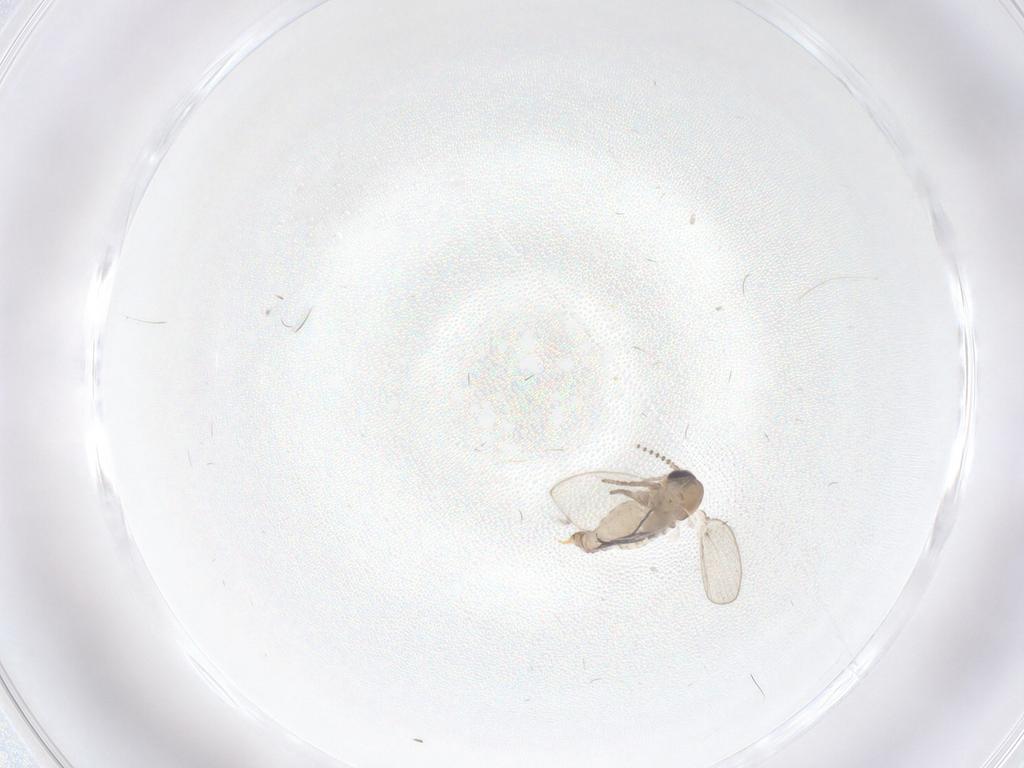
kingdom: Animalia
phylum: Arthropoda
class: Insecta
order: Diptera
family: Psychodidae
